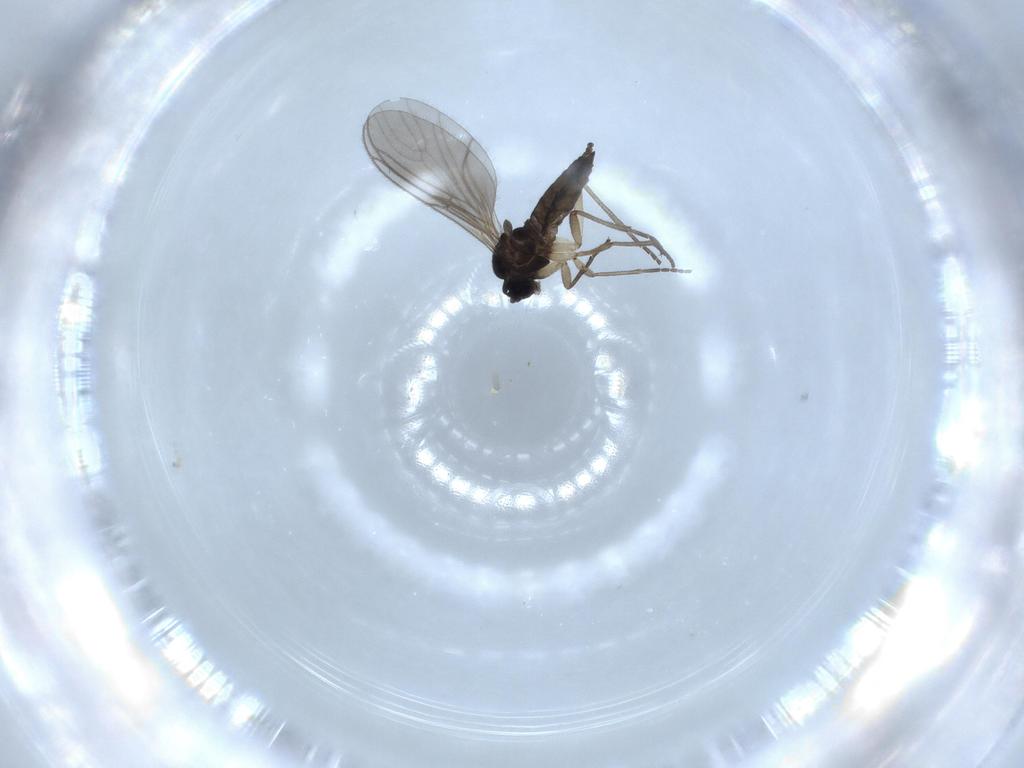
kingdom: Animalia
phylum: Arthropoda
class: Insecta
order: Diptera
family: Sciaridae
